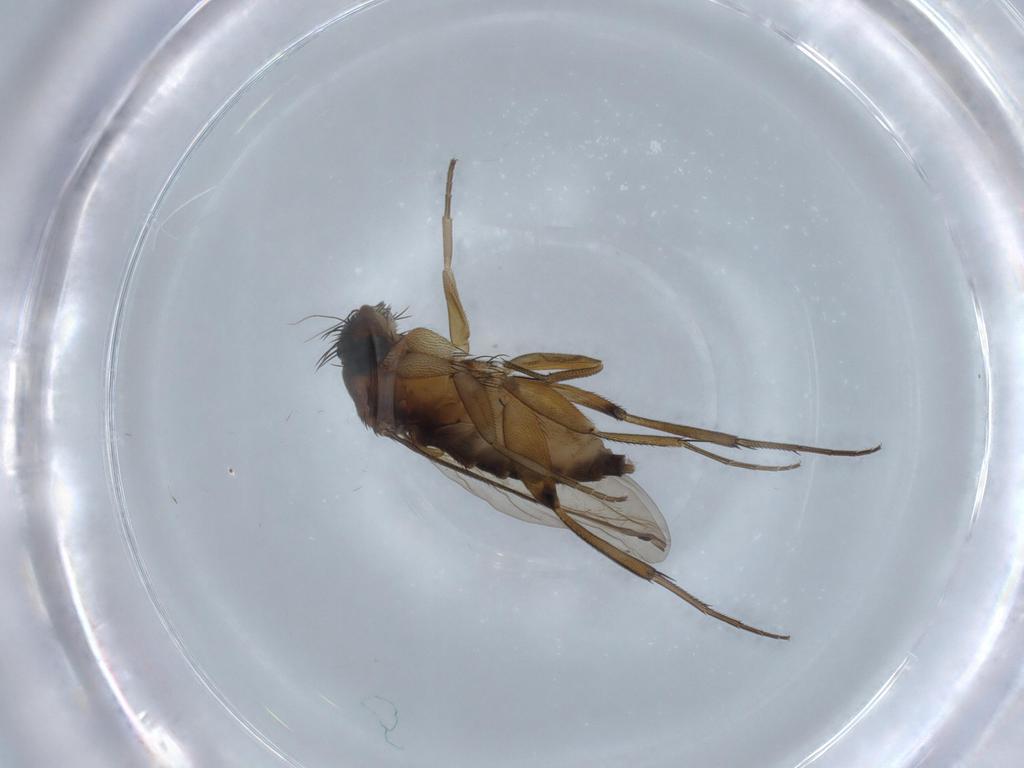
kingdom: Animalia
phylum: Arthropoda
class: Insecta
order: Diptera
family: Phoridae
